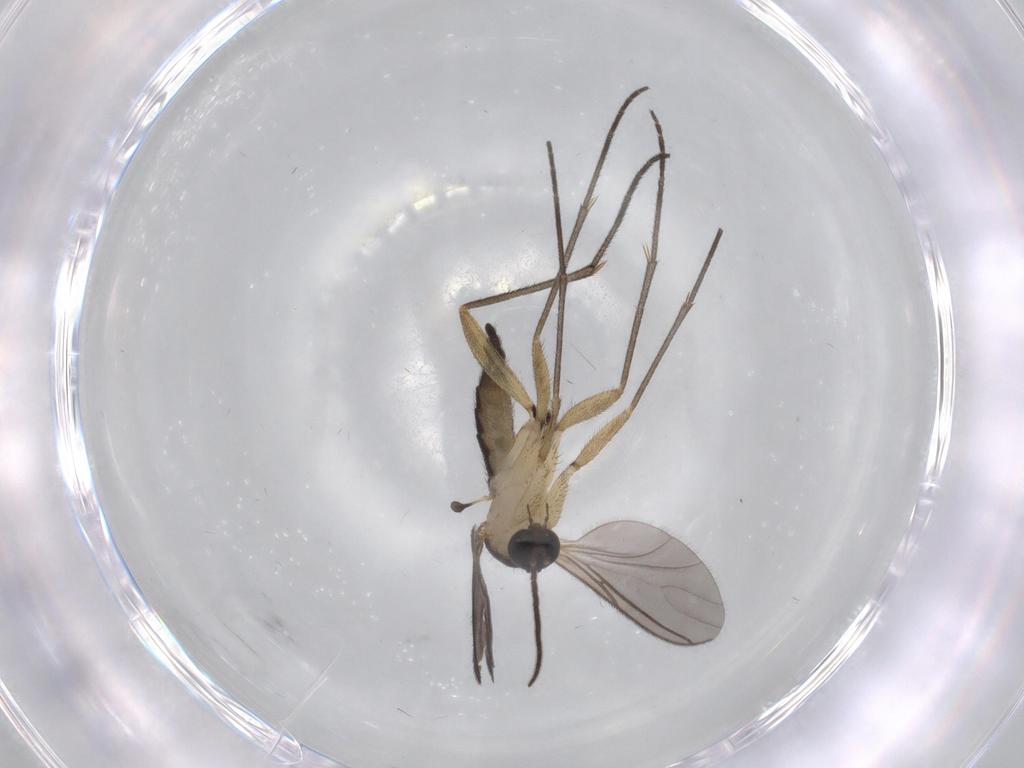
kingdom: Animalia
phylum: Arthropoda
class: Insecta
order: Diptera
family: Sciaridae
